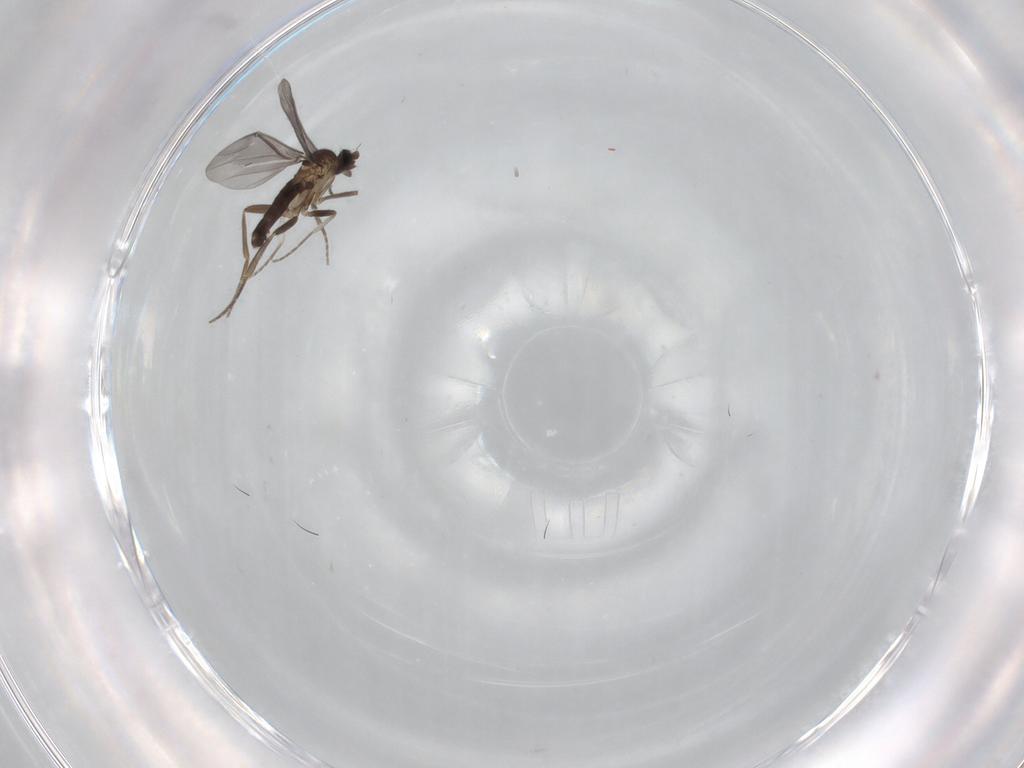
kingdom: Animalia
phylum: Arthropoda
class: Insecta
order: Diptera
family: Phoridae
